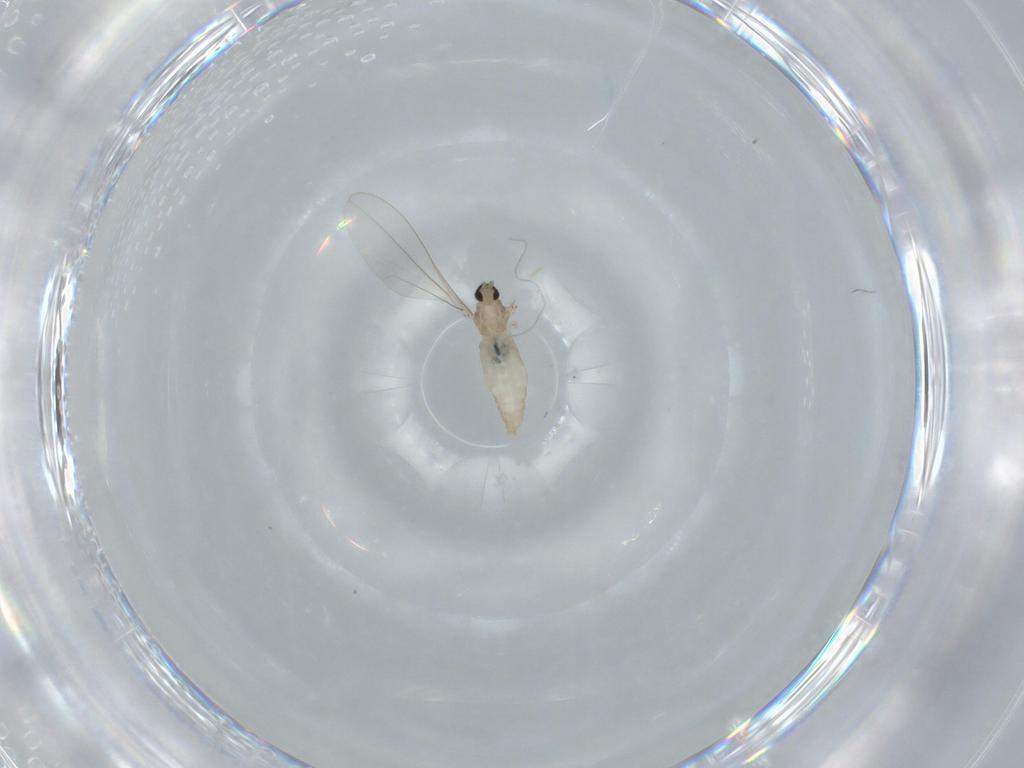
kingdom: Animalia
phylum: Arthropoda
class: Insecta
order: Diptera
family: Cecidomyiidae
